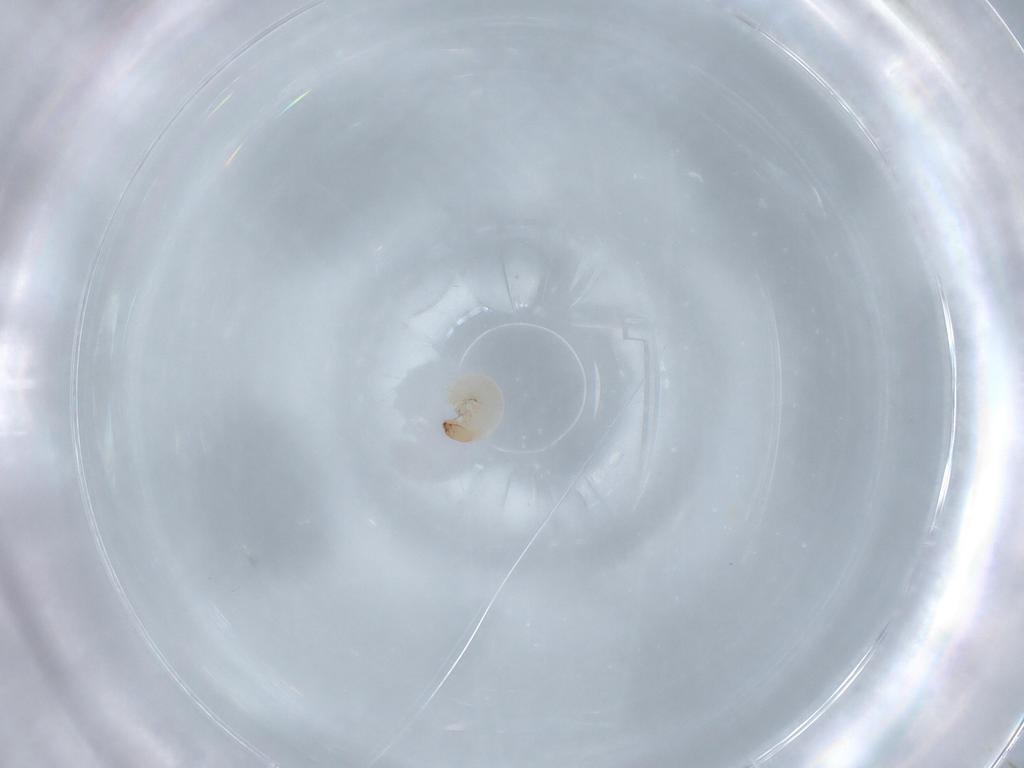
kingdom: Animalia
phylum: Arthropoda
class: Insecta
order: Coleoptera
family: Chrysomelidae
